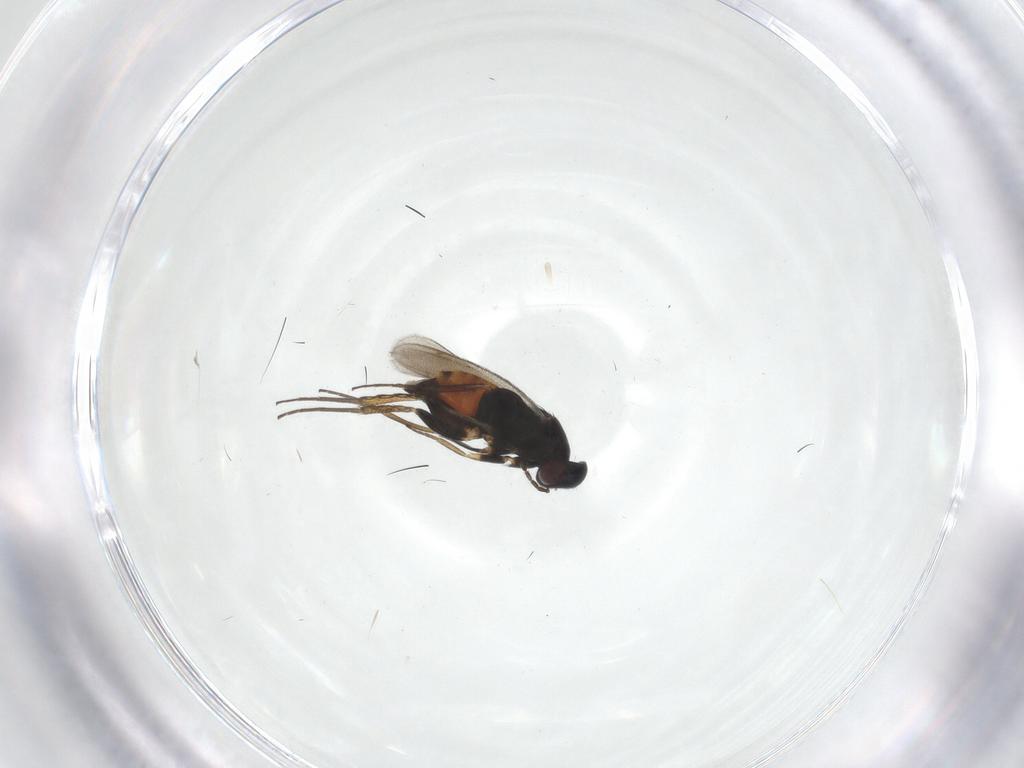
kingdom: Animalia
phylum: Arthropoda
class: Insecta
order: Hymenoptera
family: Eulophidae
